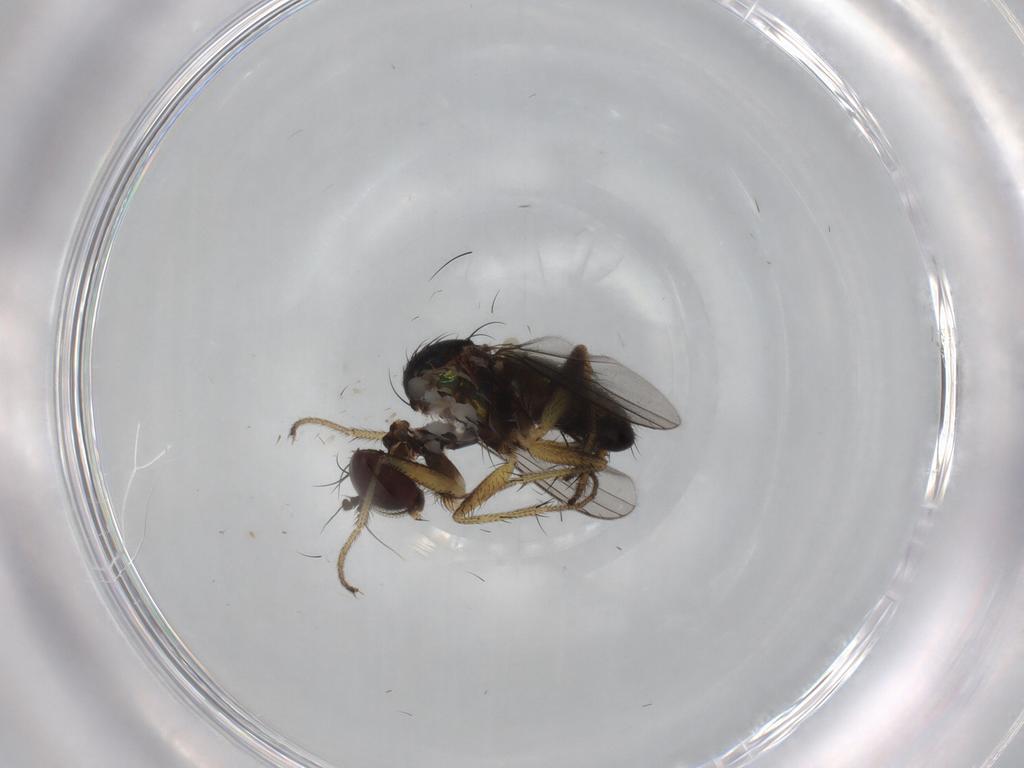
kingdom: Animalia
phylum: Arthropoda
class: Insecta
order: Diptera
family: Dolichopodidae
